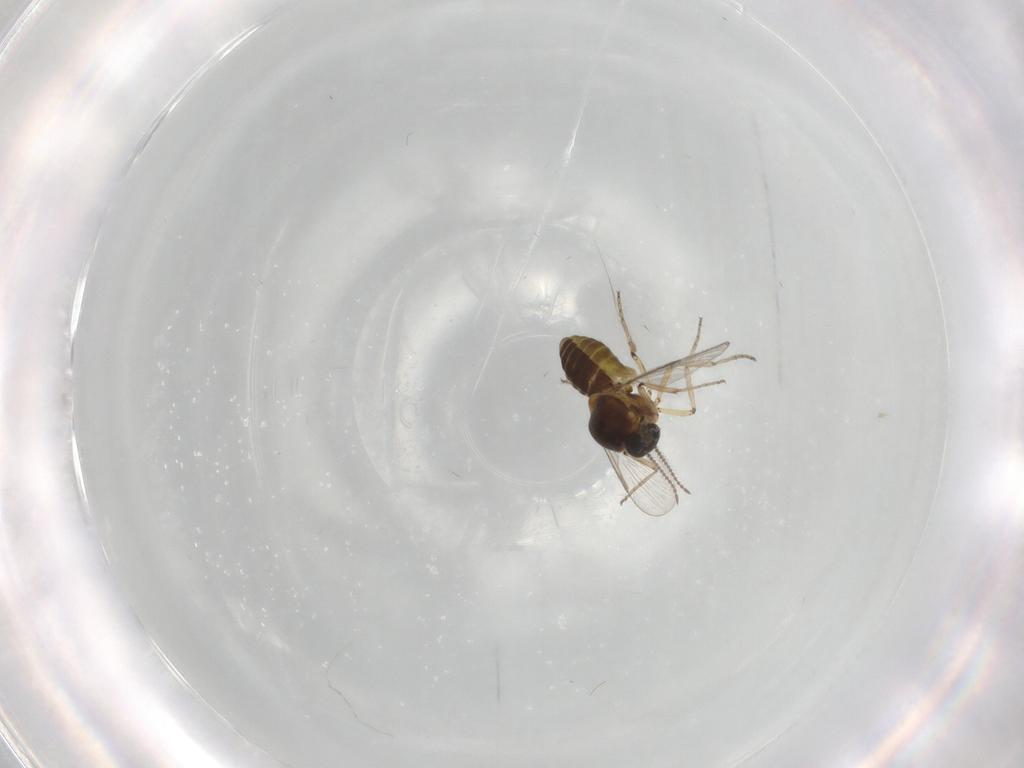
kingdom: Animalia
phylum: Arthropoda
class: Insecta
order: Diptera
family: Ceratopogonidae
